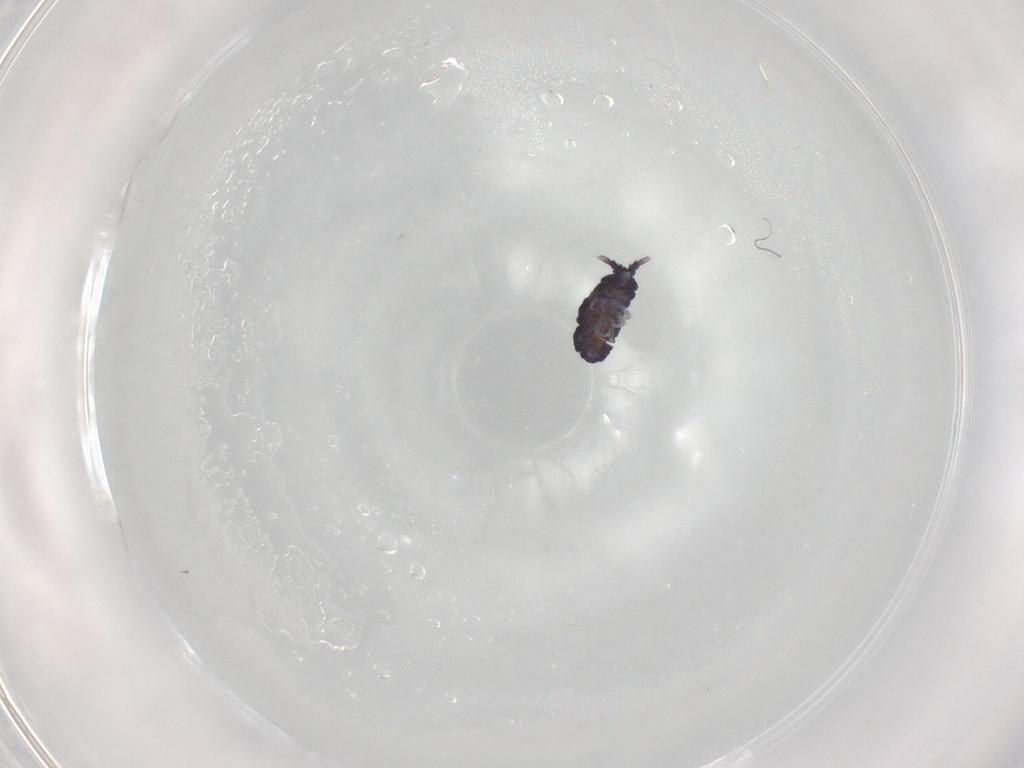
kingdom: Animalia
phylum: Arthropoda
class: Collembola
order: Poduromorpha
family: Neanuridae
